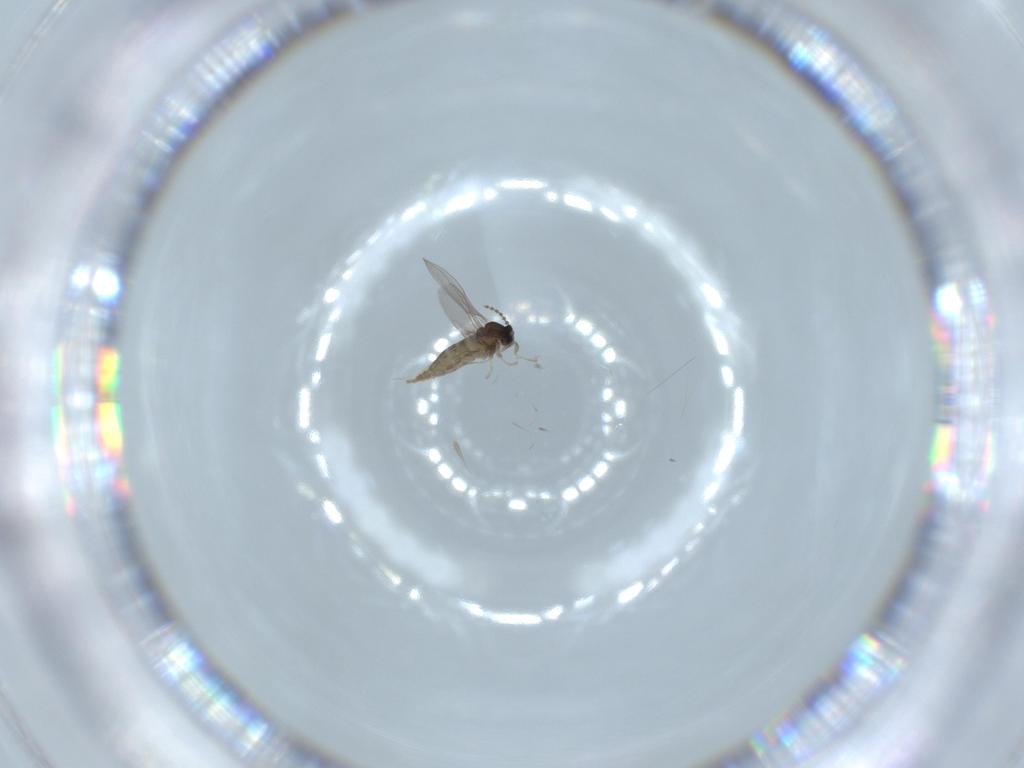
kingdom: Animalia
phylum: Arthropoda
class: Insecta
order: Diptera
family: Cecidomyiidae
